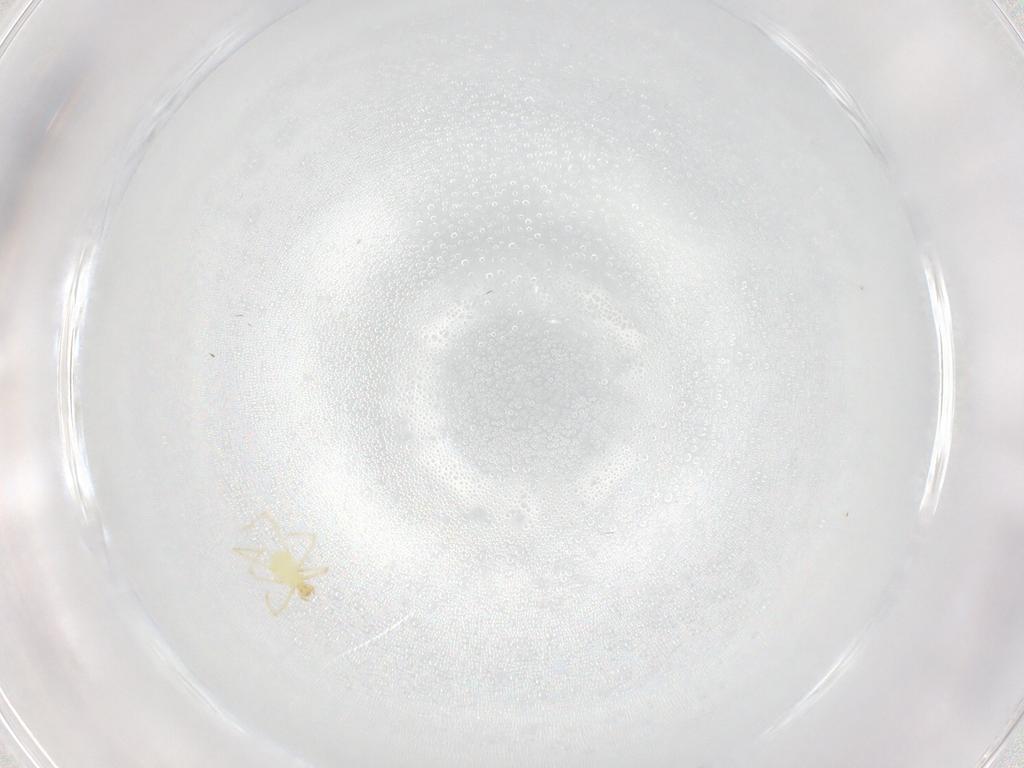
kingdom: Animalia
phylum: Arthropoda
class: Arachnida
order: Trombidiformes
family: Erythraeidae
